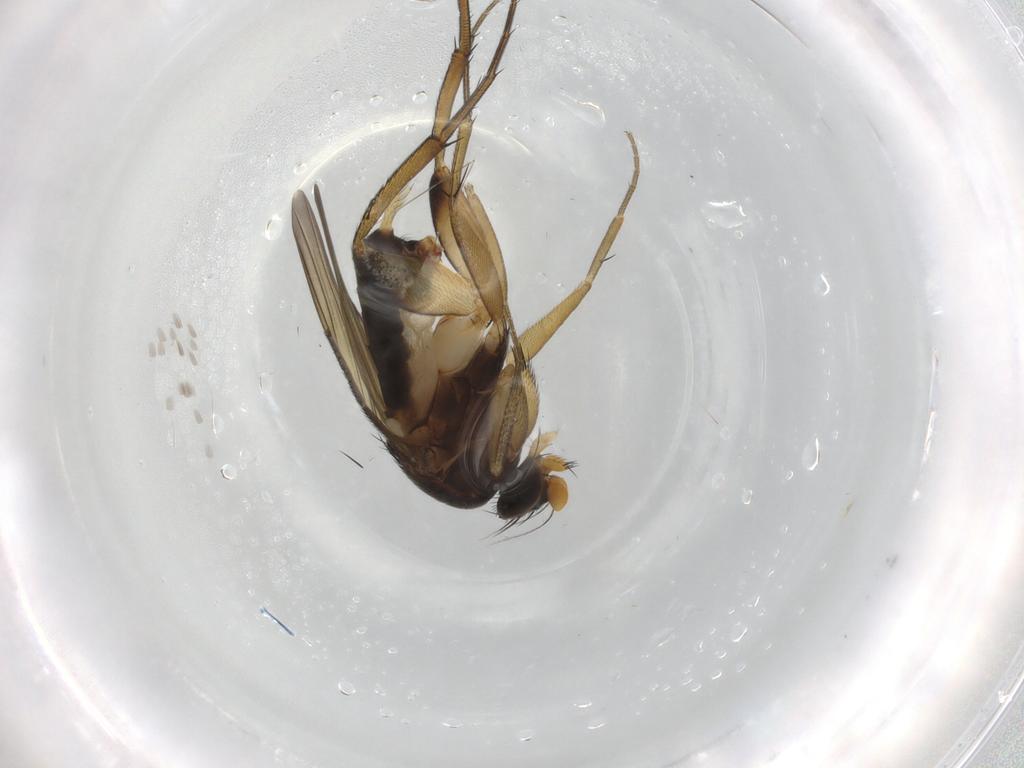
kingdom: Animalia
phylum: Arthropoda
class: Insecta
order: Diptera
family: Phoridae
